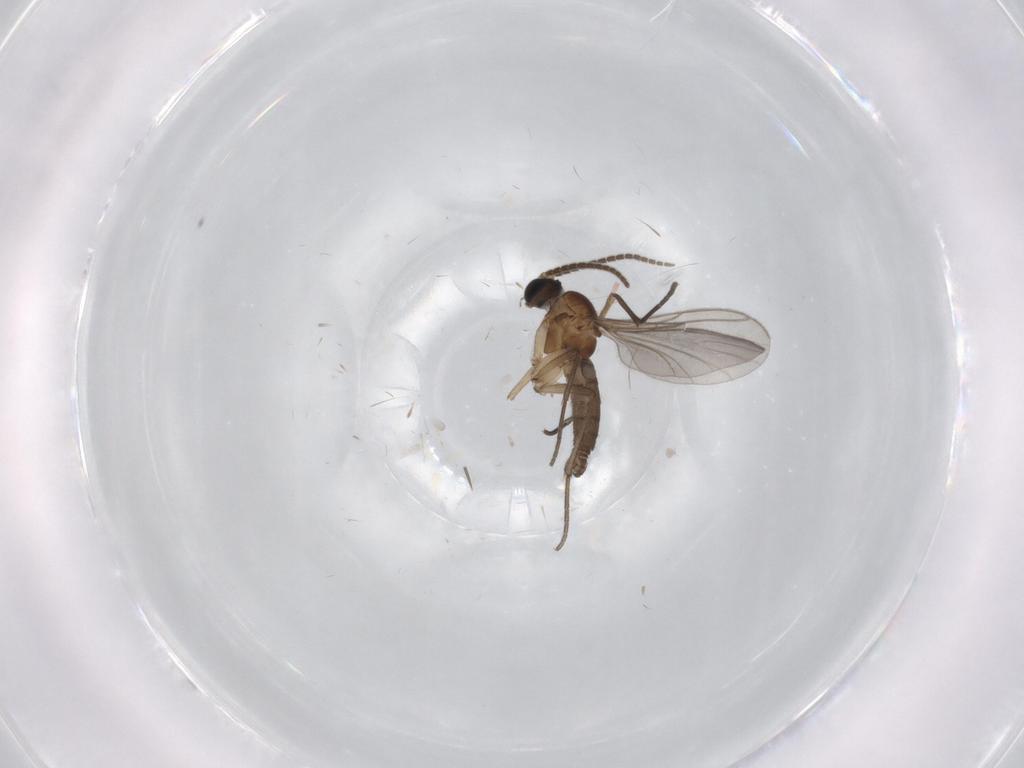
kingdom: Animalia
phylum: Arthropoda
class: Insecta
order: Diptera
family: Sciaridae
